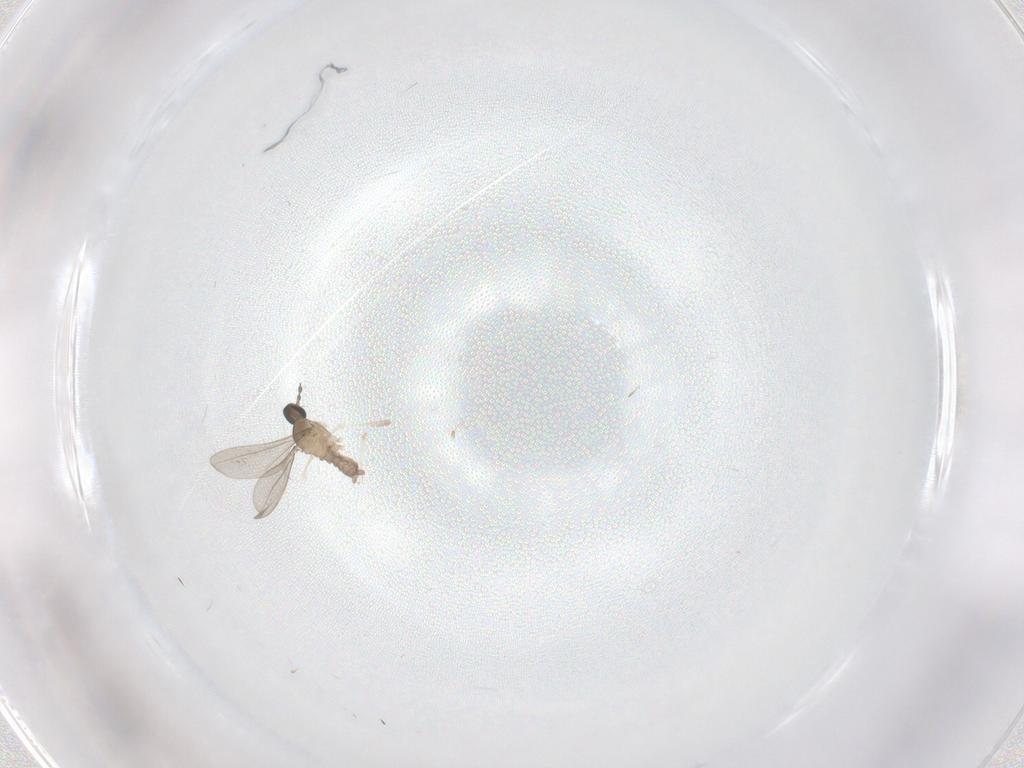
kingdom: Animalia
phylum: Arthropoda
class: Insecta
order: Diptera
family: Cecidomyiidae
